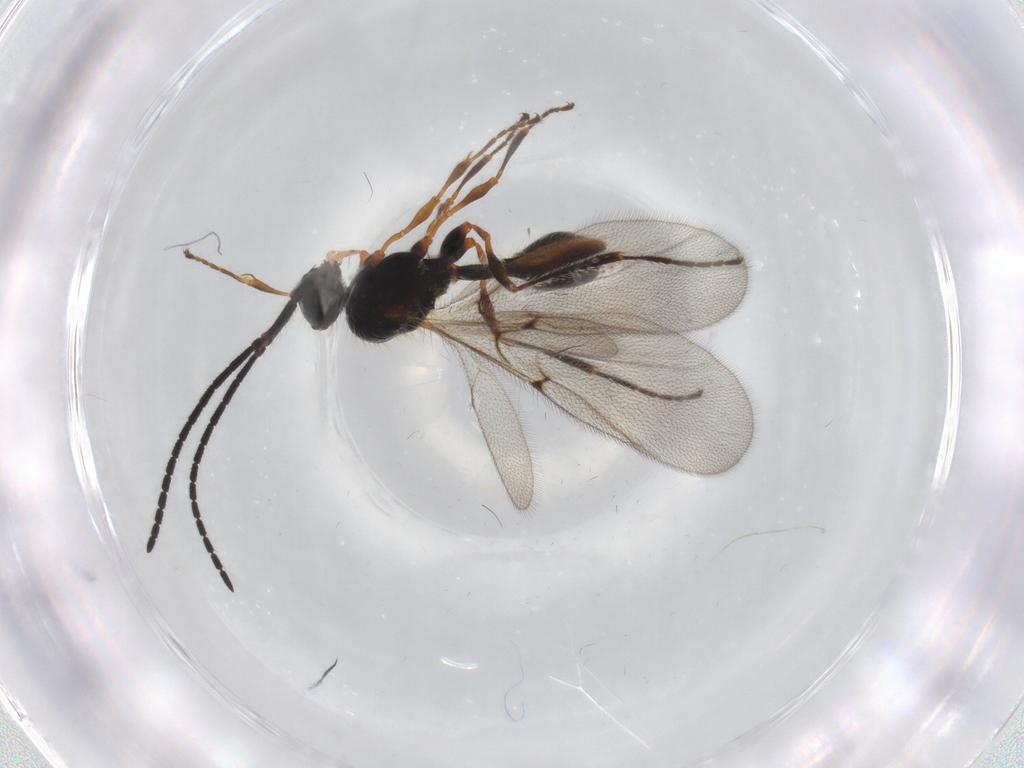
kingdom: Animalia
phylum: Arthropoda
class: Insecta
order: Hymenoptera
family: Diapriidae
